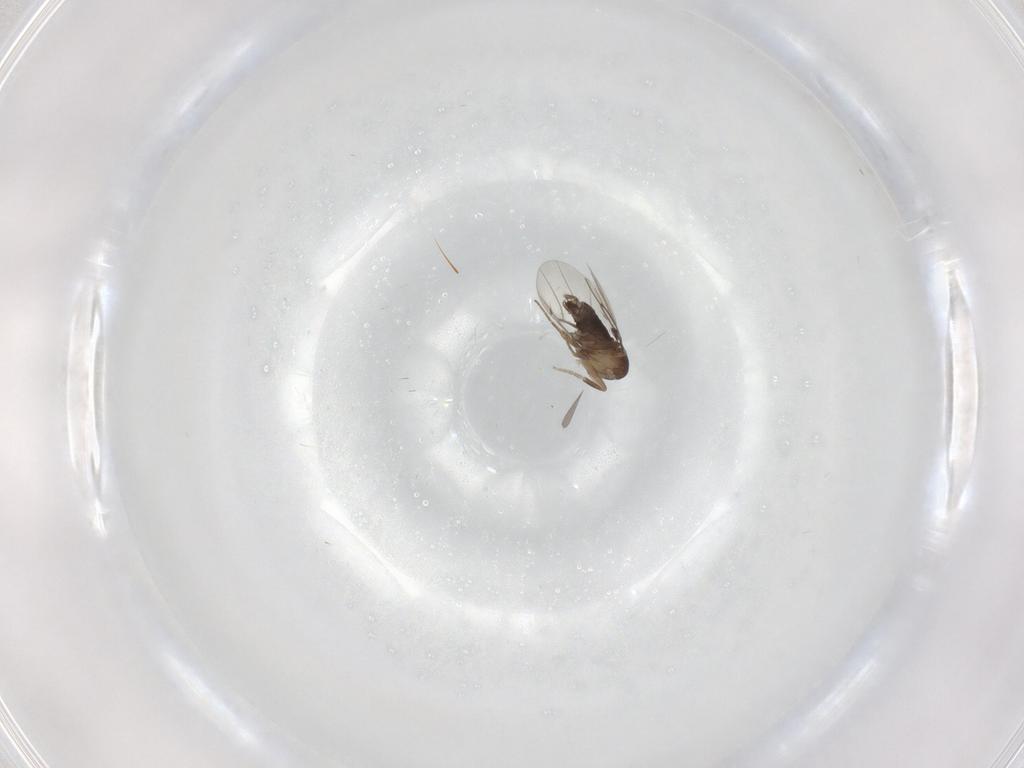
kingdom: Animalia
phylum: Arthropoda
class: Insecta
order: Diptera
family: Phoridae
